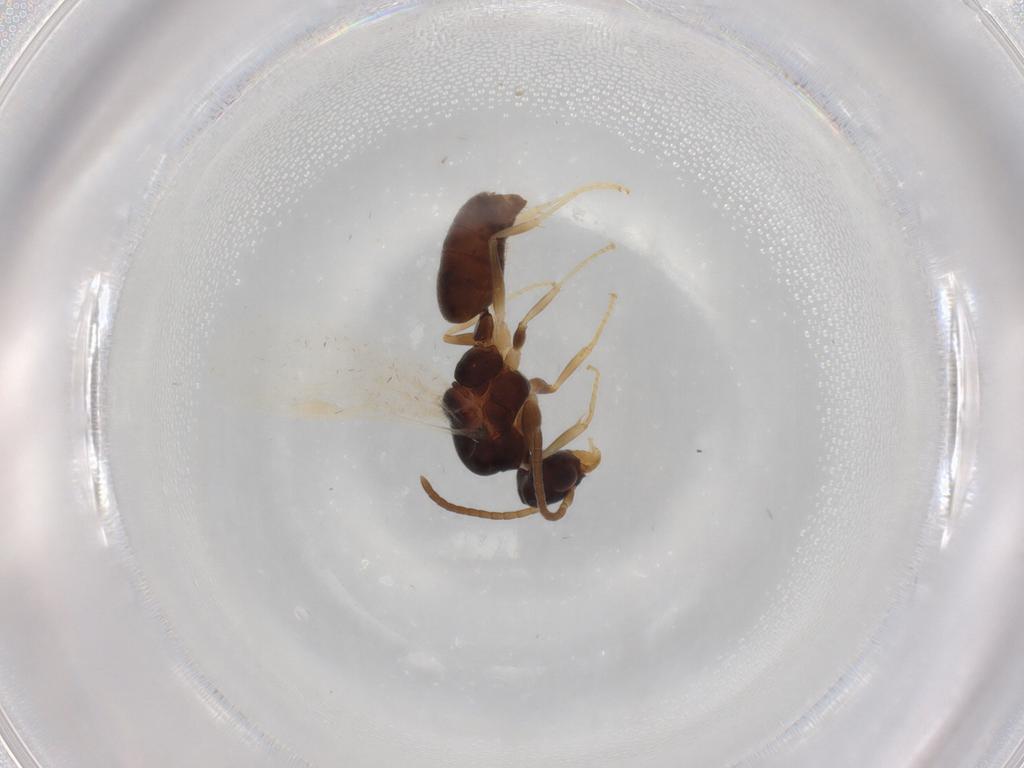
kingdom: Animalia
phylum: Arthropoda
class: Insecta
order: Hymenoptera
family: Formicidae
